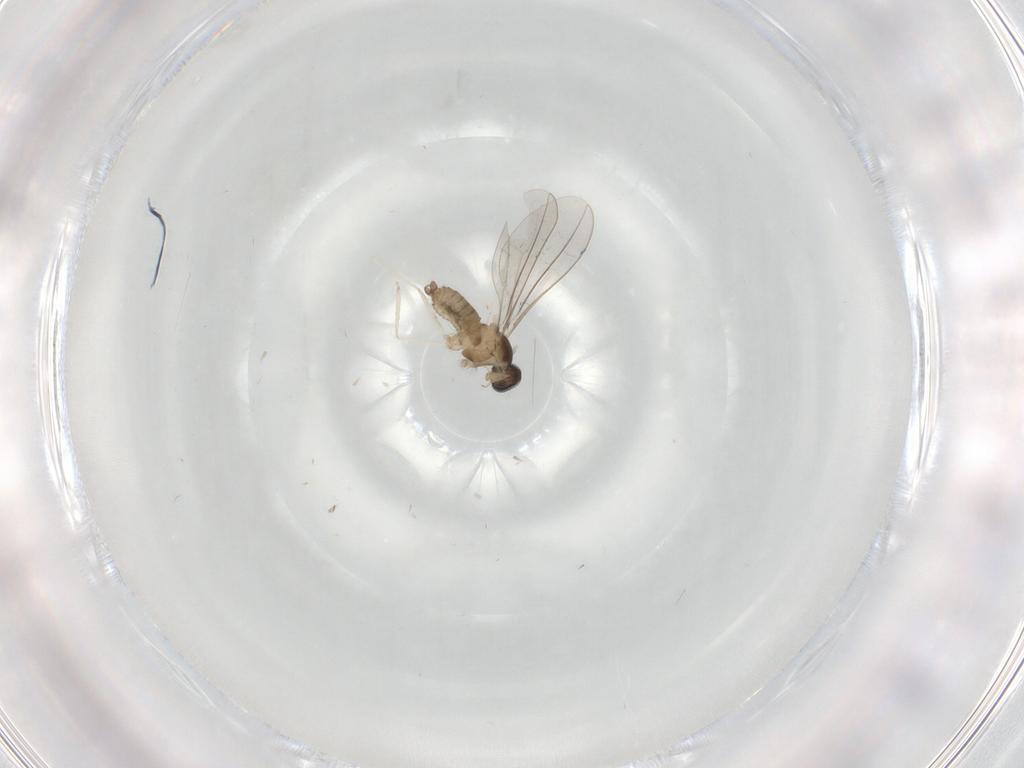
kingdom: Animalia
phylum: Arthropoda
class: Insecta
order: Diptera
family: Cecidomyiidae
